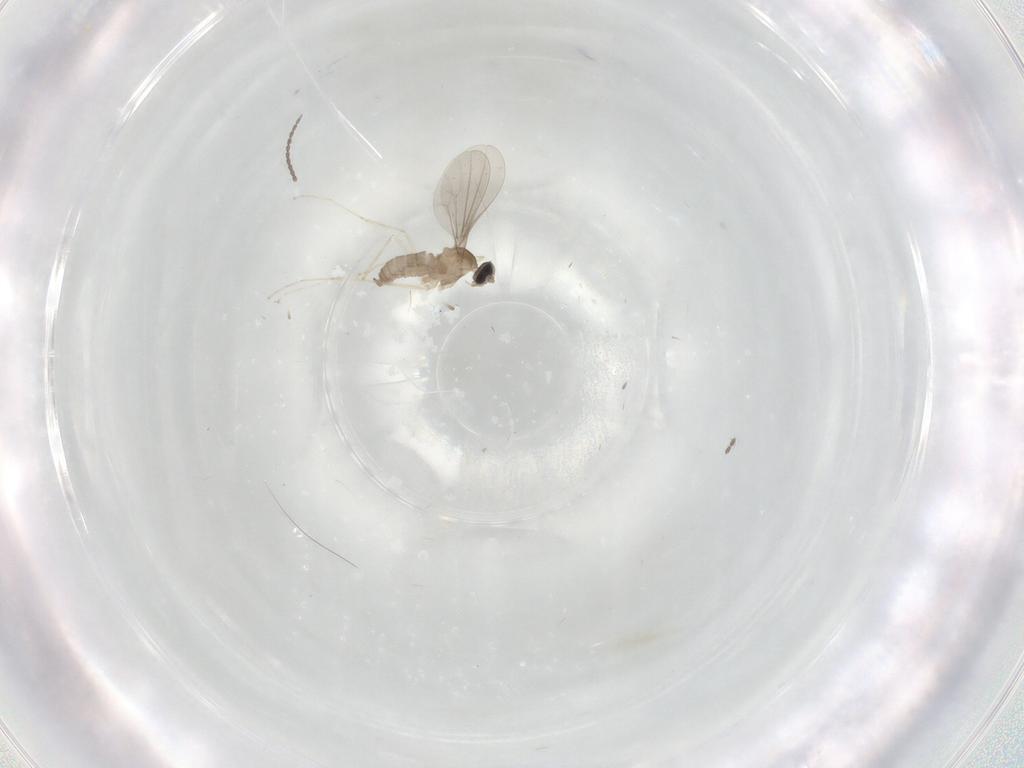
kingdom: Animalia
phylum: Arthropoda
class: Insecta
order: Diptera
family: Cecidomyiidae
